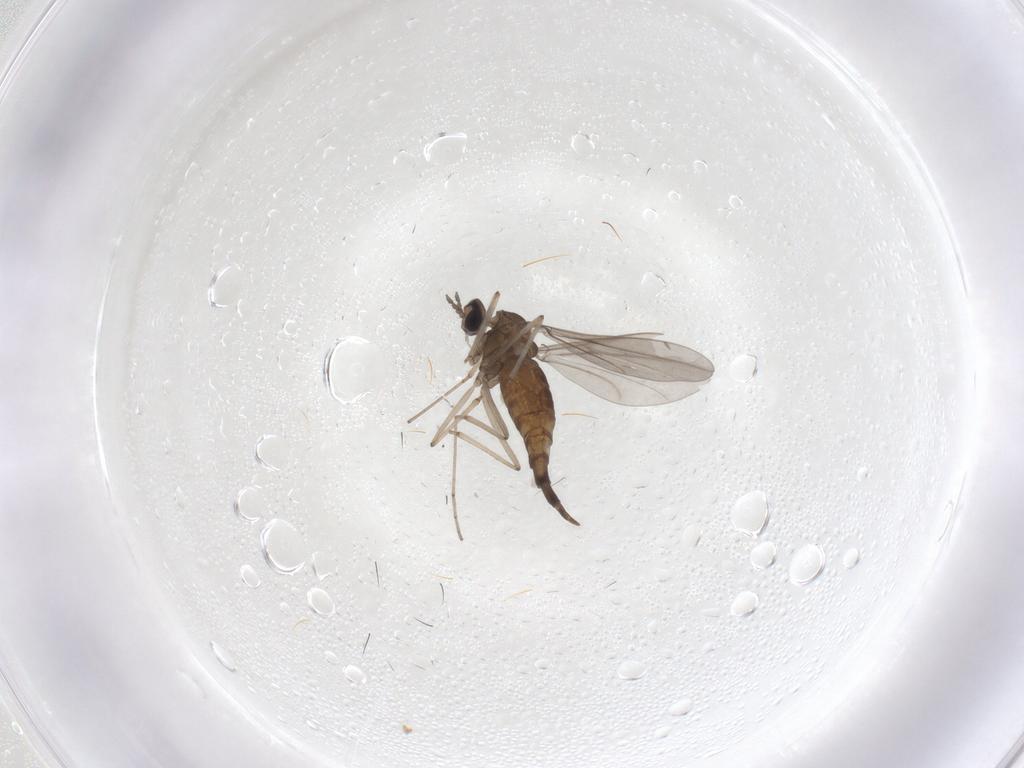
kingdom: Animalia
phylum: Arthropoda
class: Insecta
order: Diptera
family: Cecidomyiidae
